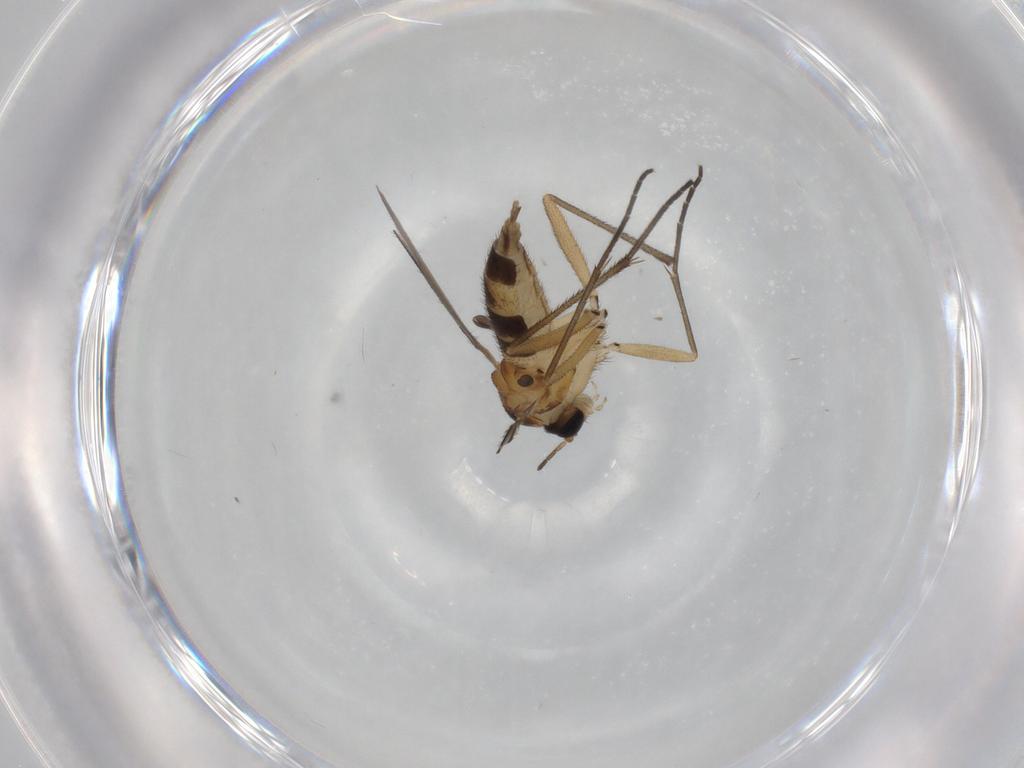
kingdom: Animalia
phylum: Arthropoda
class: Insecta
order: Diptera
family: Sciaridae
